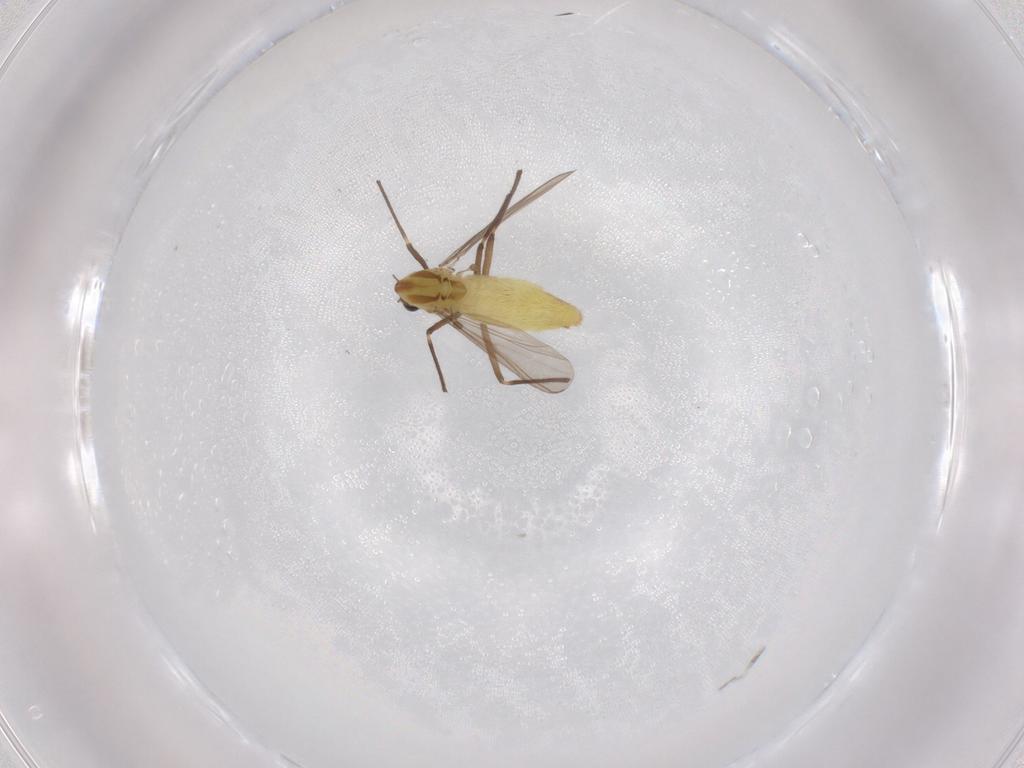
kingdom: Animalia
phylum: Arthropoda
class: Insecta
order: Diptera
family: Chironomidae
